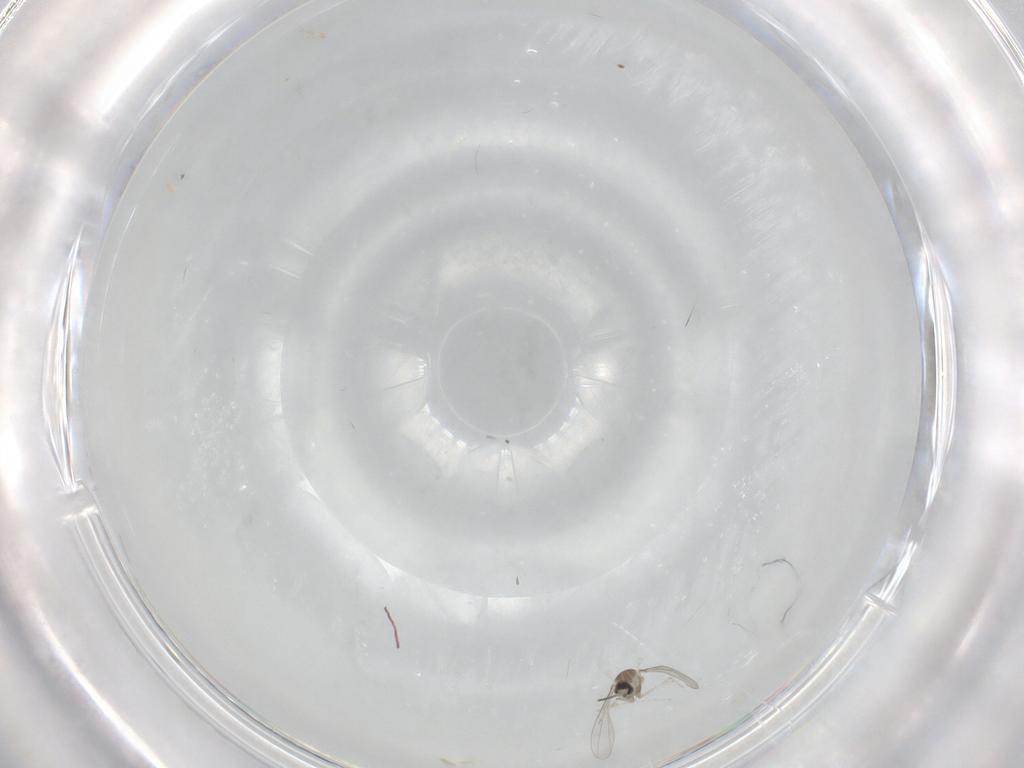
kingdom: Animalia
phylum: Arthropoda
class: Insecta
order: Diptera
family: Cecidomyiidae
